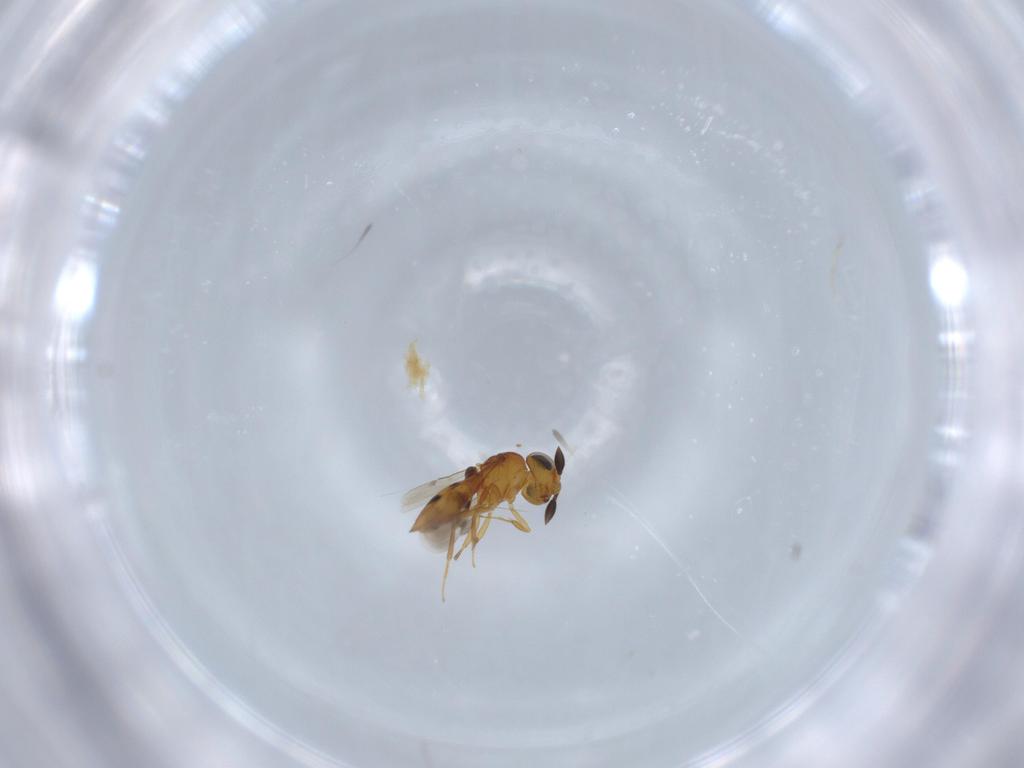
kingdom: Animalia
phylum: Arthropoda
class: Insecta
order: Hymenoptera
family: Scelionidae
